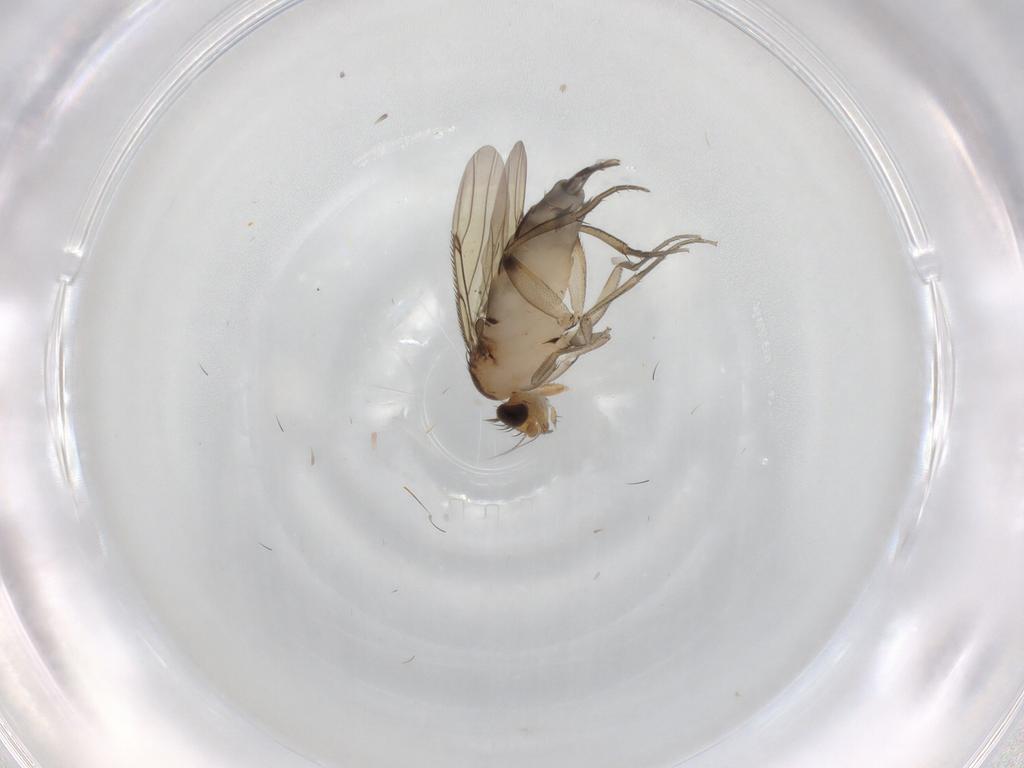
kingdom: Animalia
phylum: Arthropoda
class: Insecta
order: Diptera
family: Phoridae
